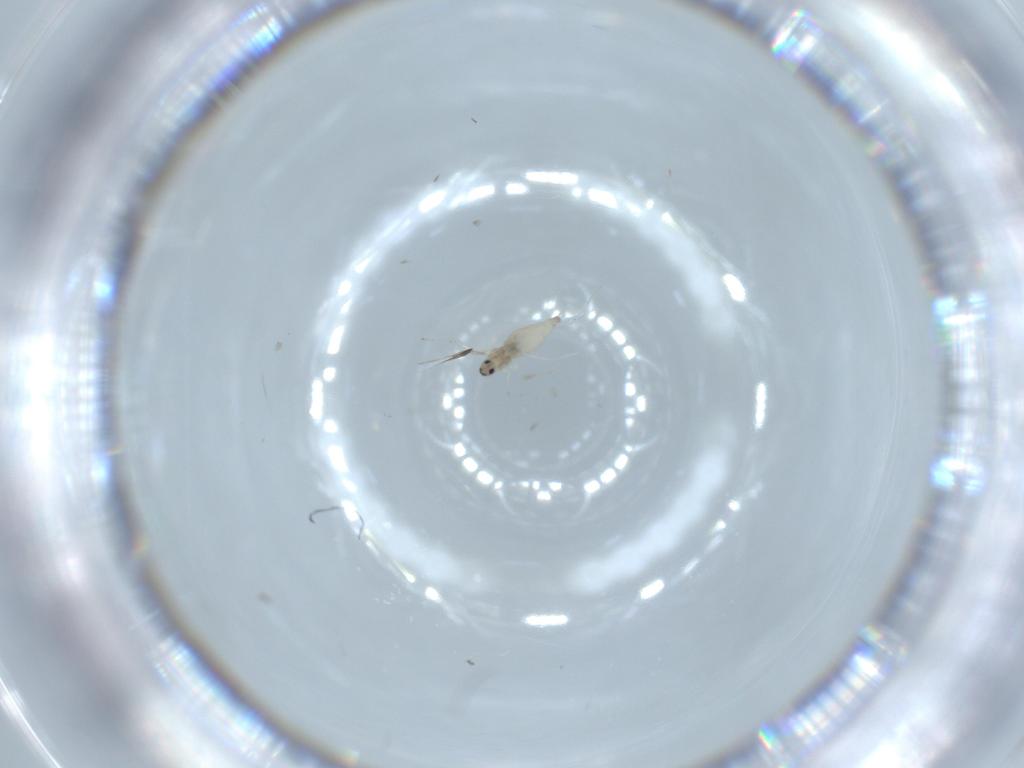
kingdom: Animalia
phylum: Arthropoda
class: Insecta
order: Diptera
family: Cecidomyiidae
